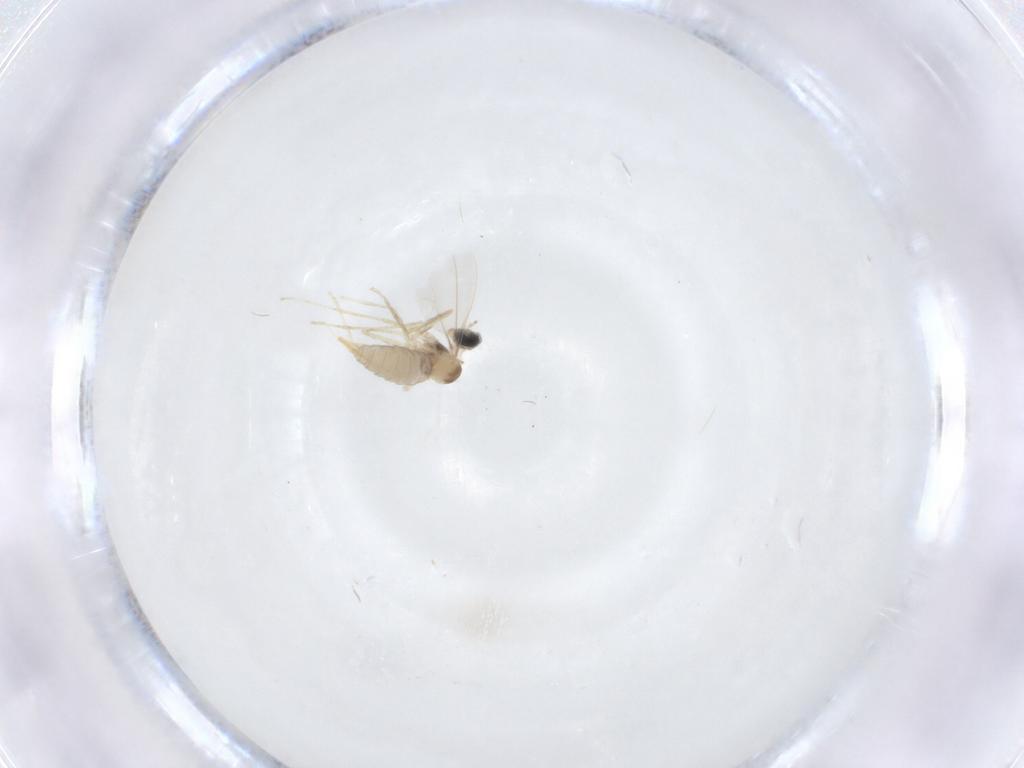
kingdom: Animalia
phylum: Arthropoda
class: Insecta
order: Diptera
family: Cecidomyiidae
